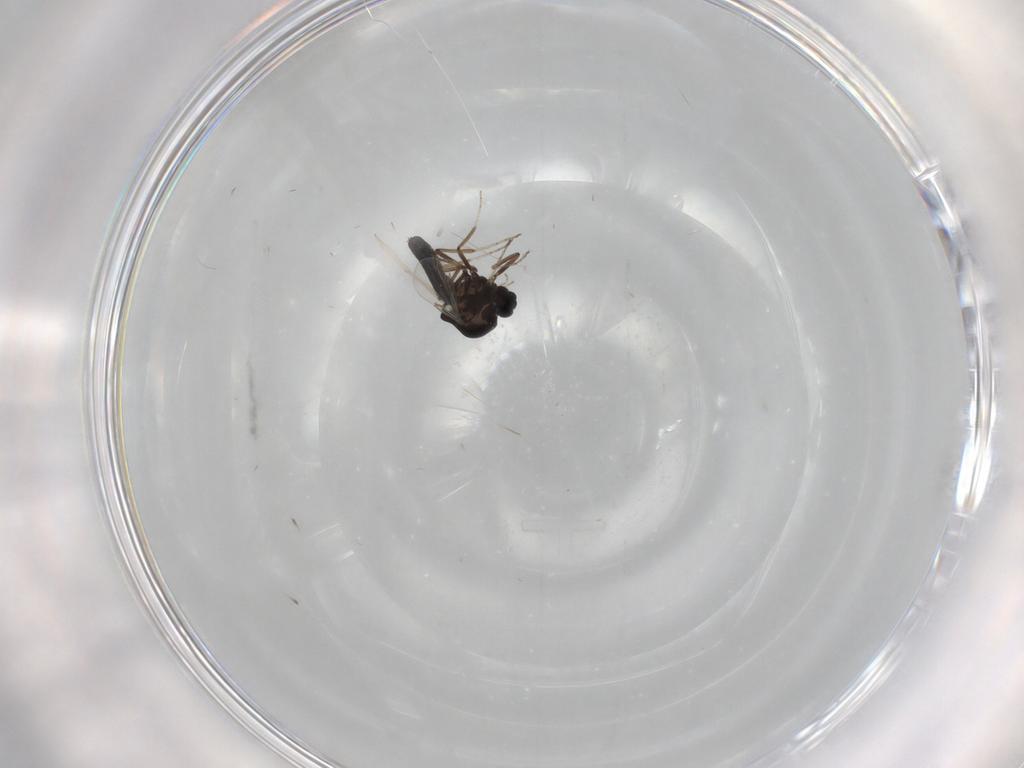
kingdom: Animalia
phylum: Arthropoda
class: Insecta
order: Diptera
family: Ceratopogonidae
